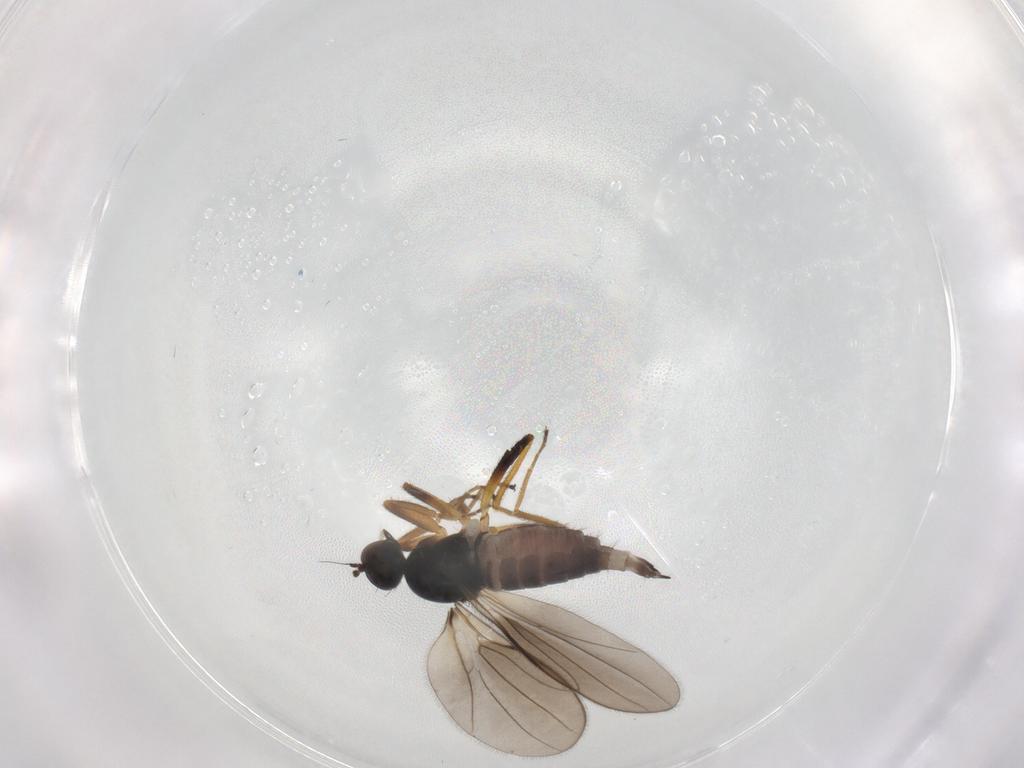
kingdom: Animalia
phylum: Arthropoda
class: Insecta
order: Diptera
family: Hybotidae
